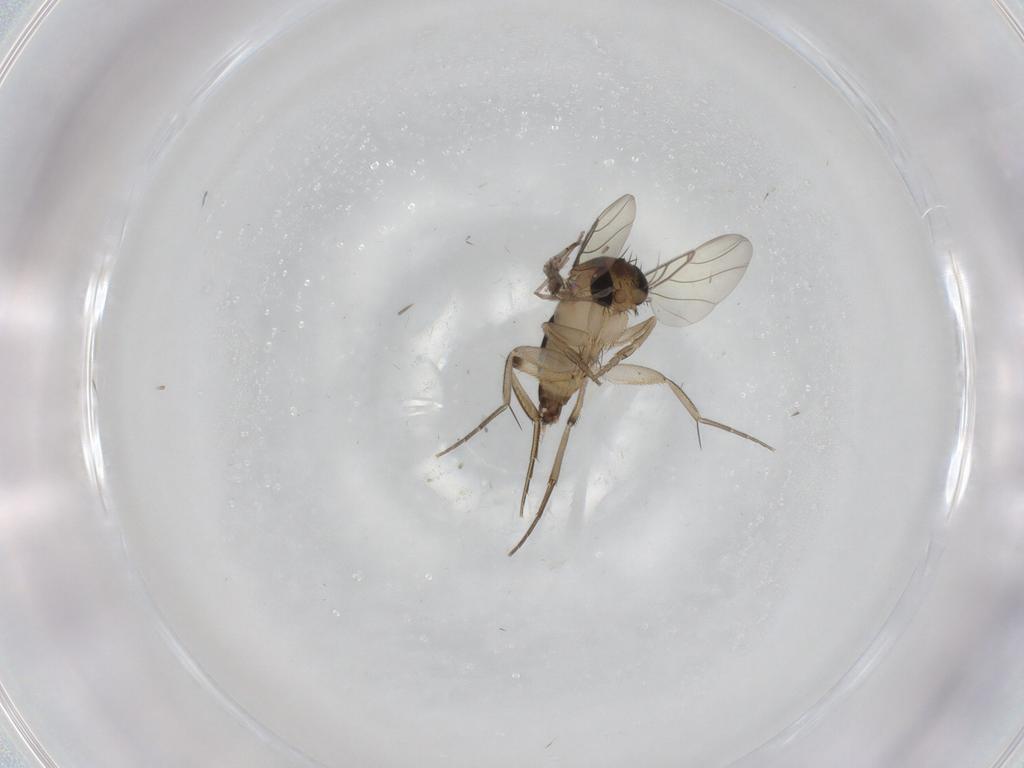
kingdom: Animalia
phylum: Arthropoda
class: Insecta
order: Diptera
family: Phoridae
